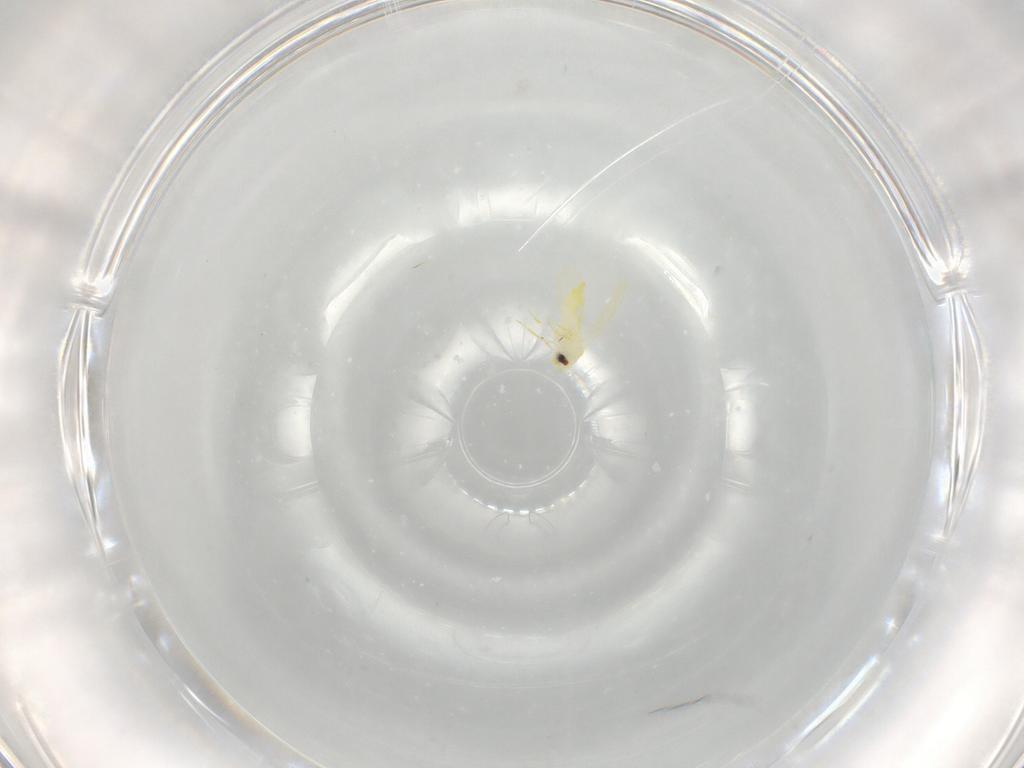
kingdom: Animalia
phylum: Arthropoda
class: Insecta
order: Hemiptera
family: Aleyrodidae
